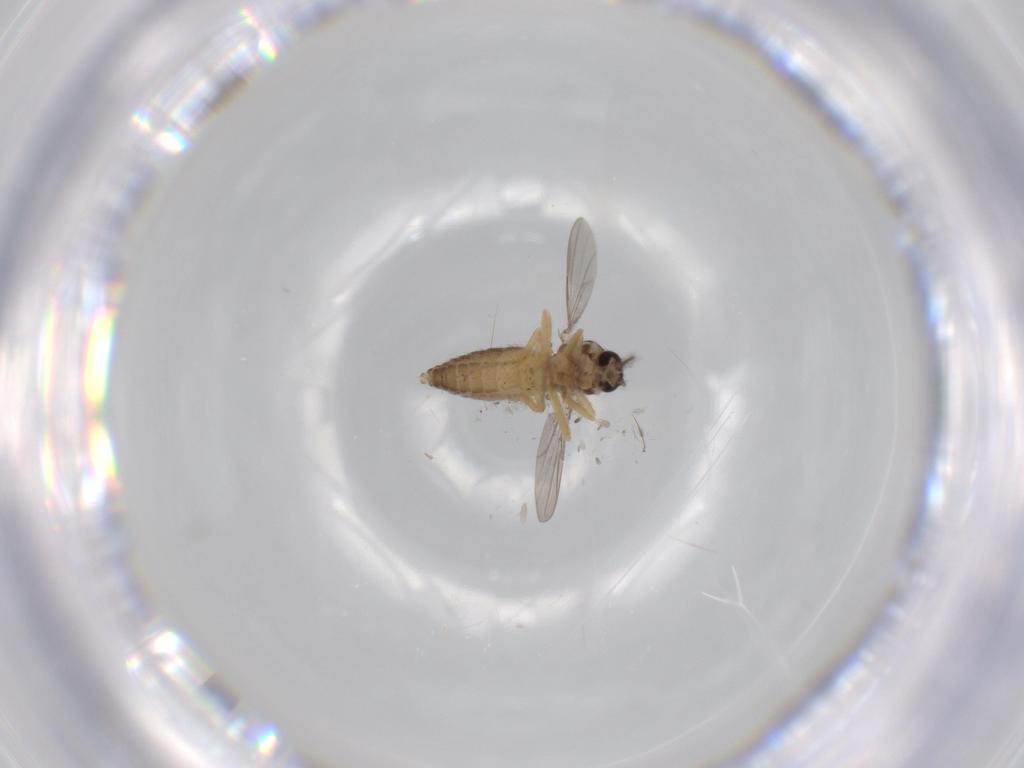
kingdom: Animalia
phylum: Arthropoda
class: Insecta
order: Diptera
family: Ceratopogonidae
